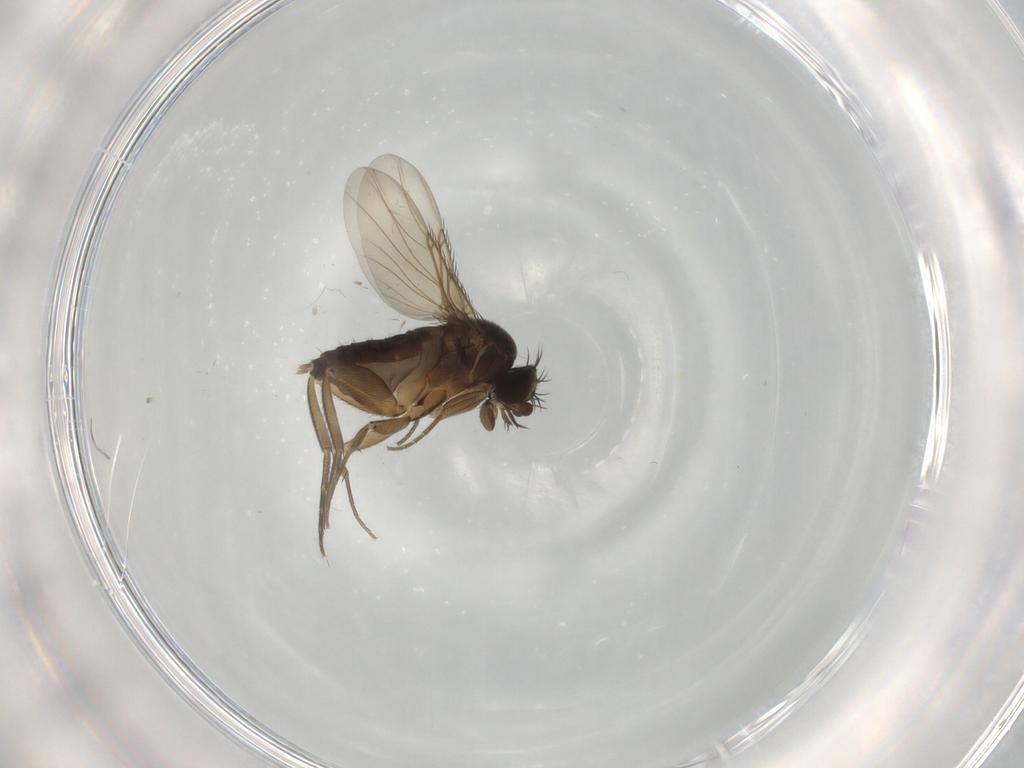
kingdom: Animalia
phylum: Arthropoda
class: Insecta
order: Diptera
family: Phoridae
